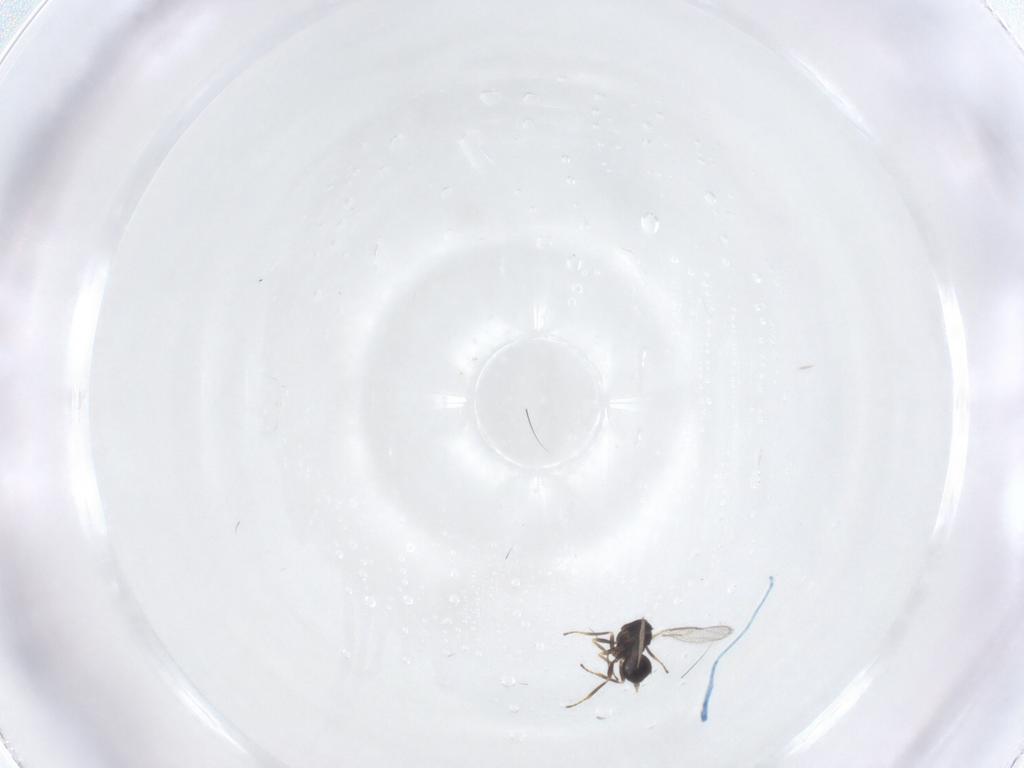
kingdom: Animalia
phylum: Arthropoda
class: Insecta
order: Hymenoptera
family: Eulophidae
